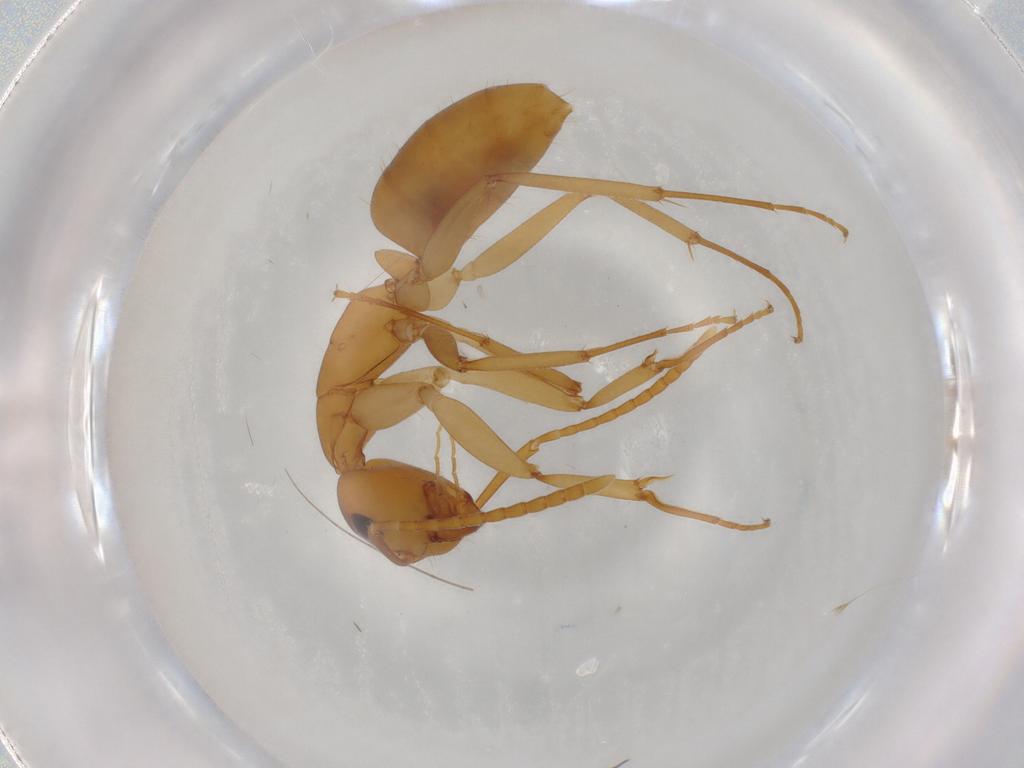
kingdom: Animalia
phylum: Arthropoda
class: Insecta
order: Hymenoptera
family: Formicidae
